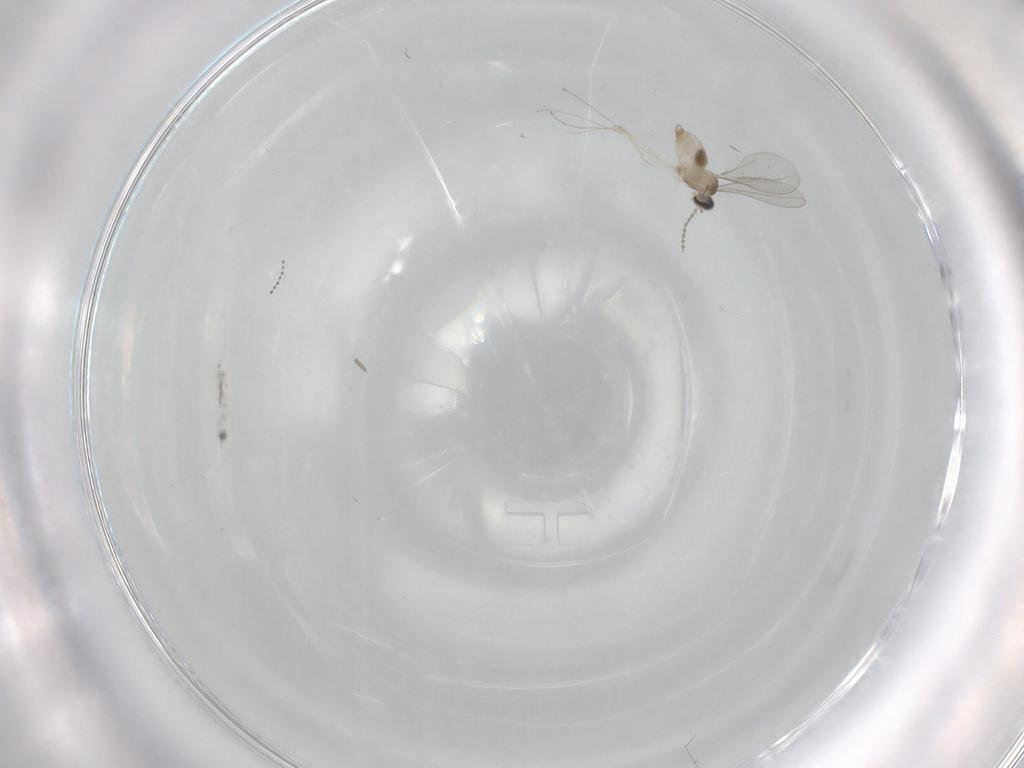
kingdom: Animalia
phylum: Arthropoda
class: Insecta
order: Diptera
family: Cecidomyiidae
